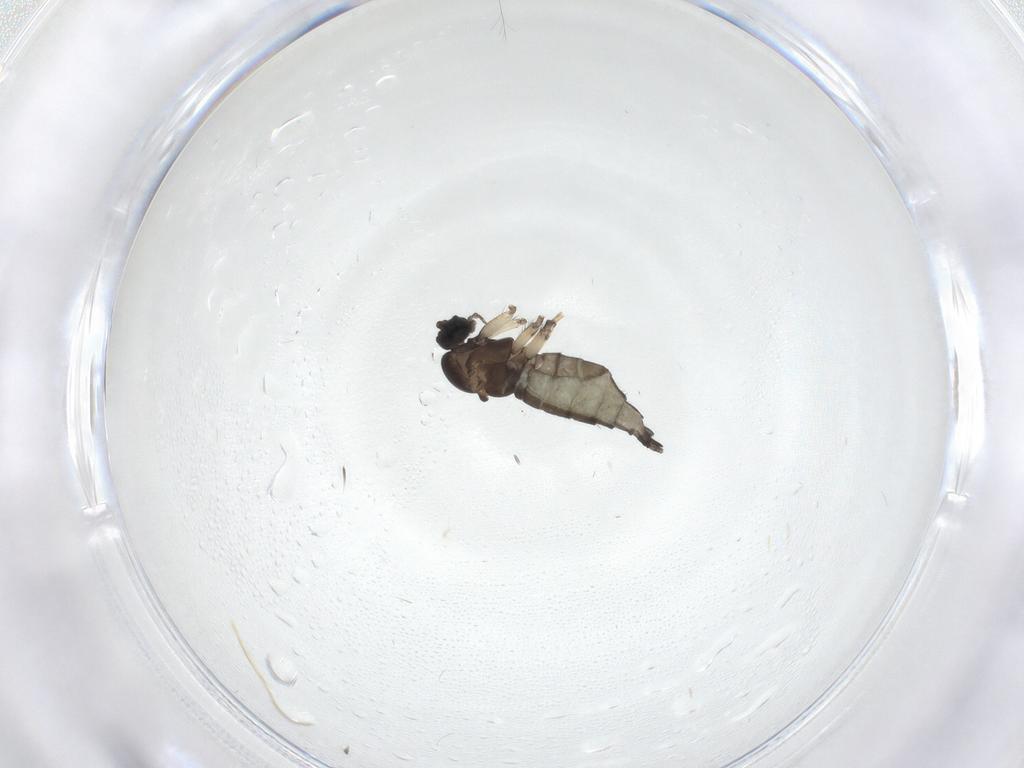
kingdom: Animalia
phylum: Arthropoda
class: Insecta
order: Diptera
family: Sciaridae
